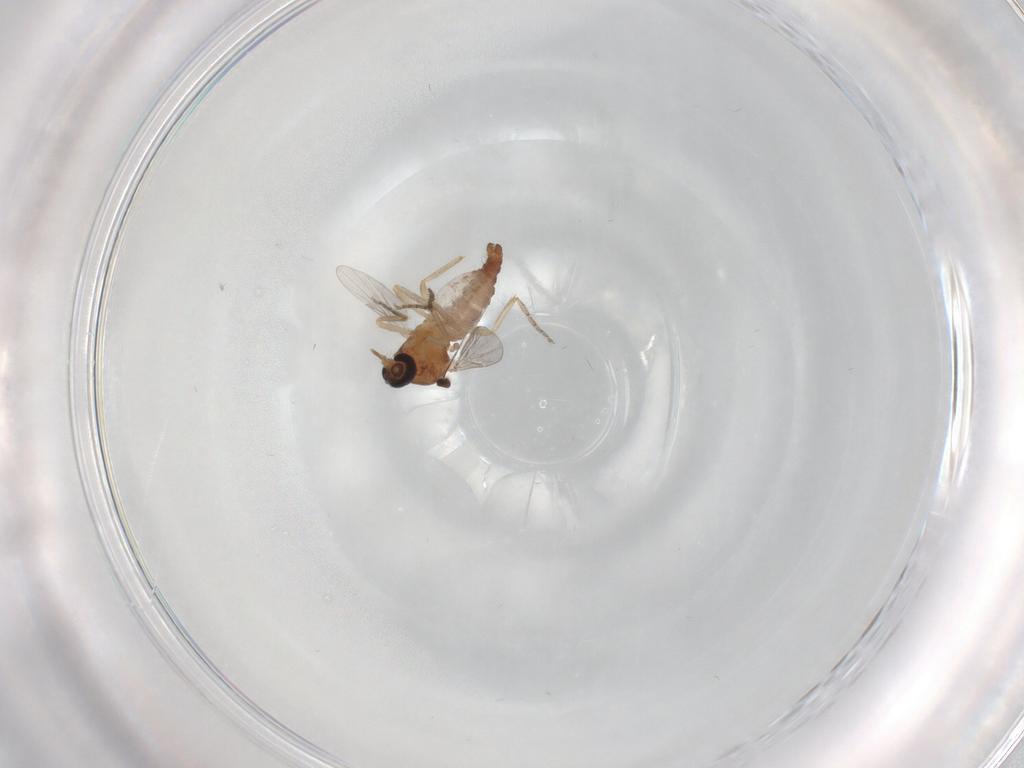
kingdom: Animalia
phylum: Arthropoda
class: Insecta
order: Diptera
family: Ceratopogonidae
